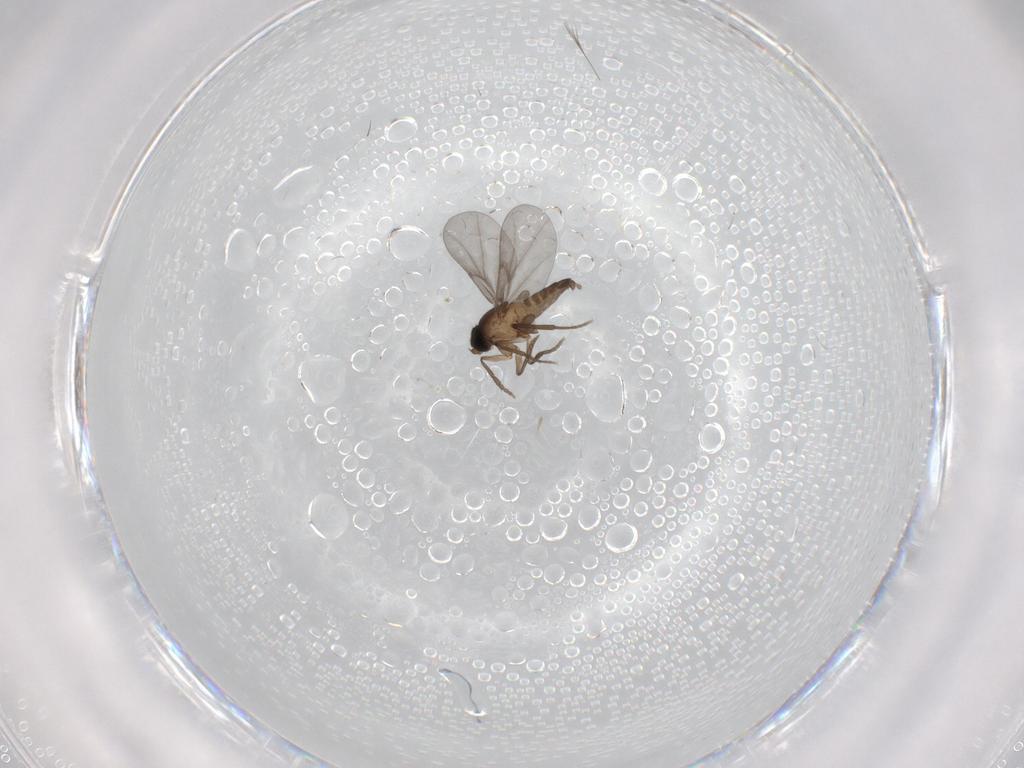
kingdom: Animalia
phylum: Arthropoda
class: Insecta
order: Diptera
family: Phoridae
